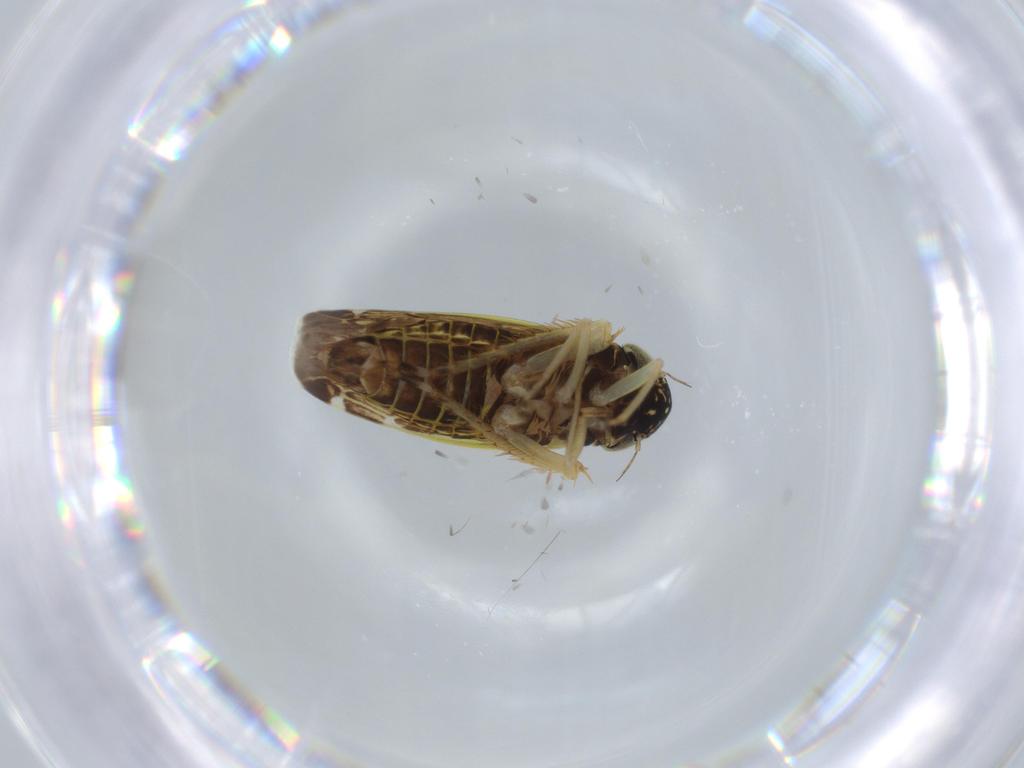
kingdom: Animalia
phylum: Arthropoda
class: Insecta
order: Hemiptera
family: Cicadellidae
